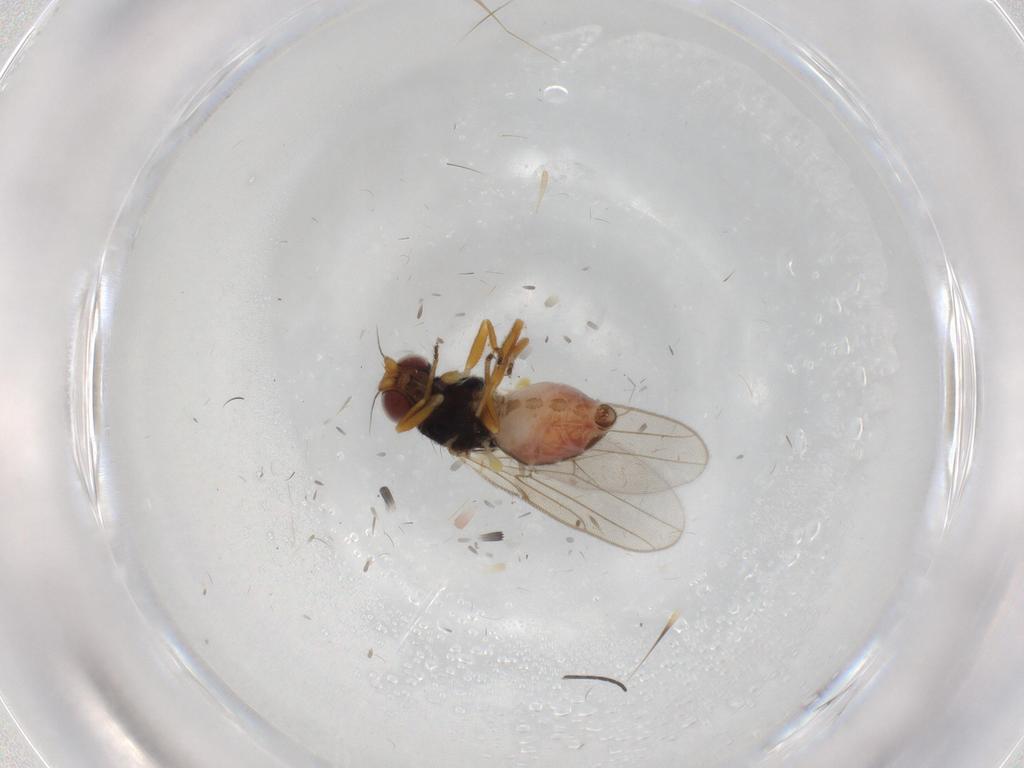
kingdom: Animalia
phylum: Arthropoda
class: Insecta
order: Diptera
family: Chloropidae
